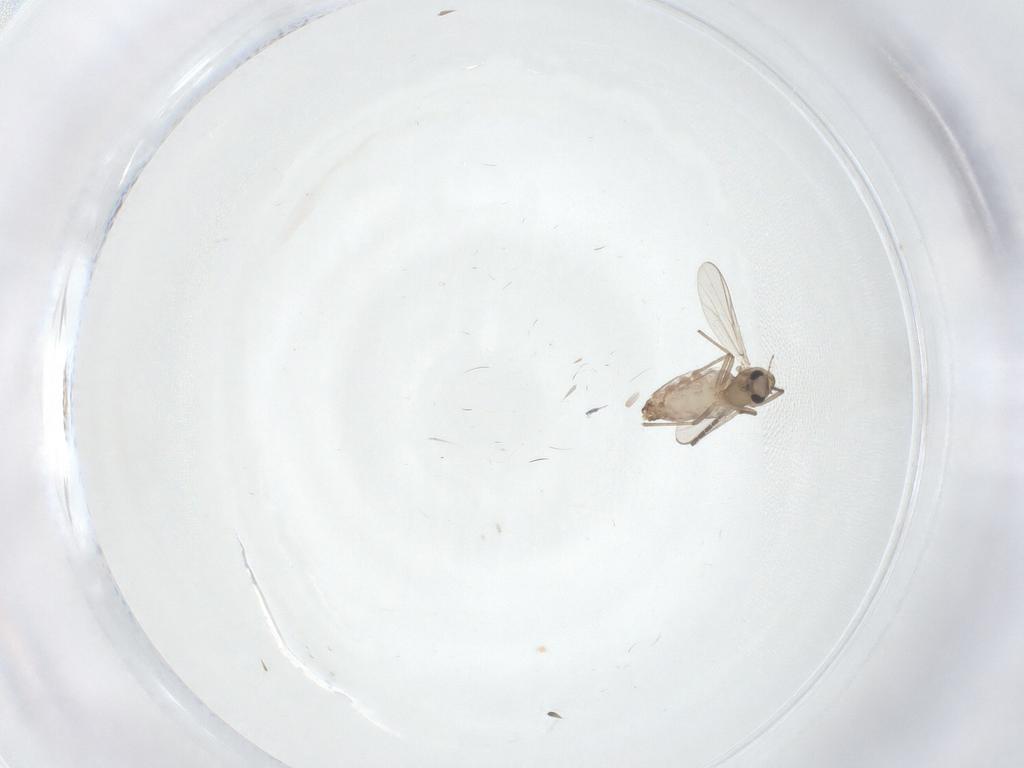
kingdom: Animalia
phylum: Arthropoda
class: Insecta
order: Diptera
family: Chironomidae
